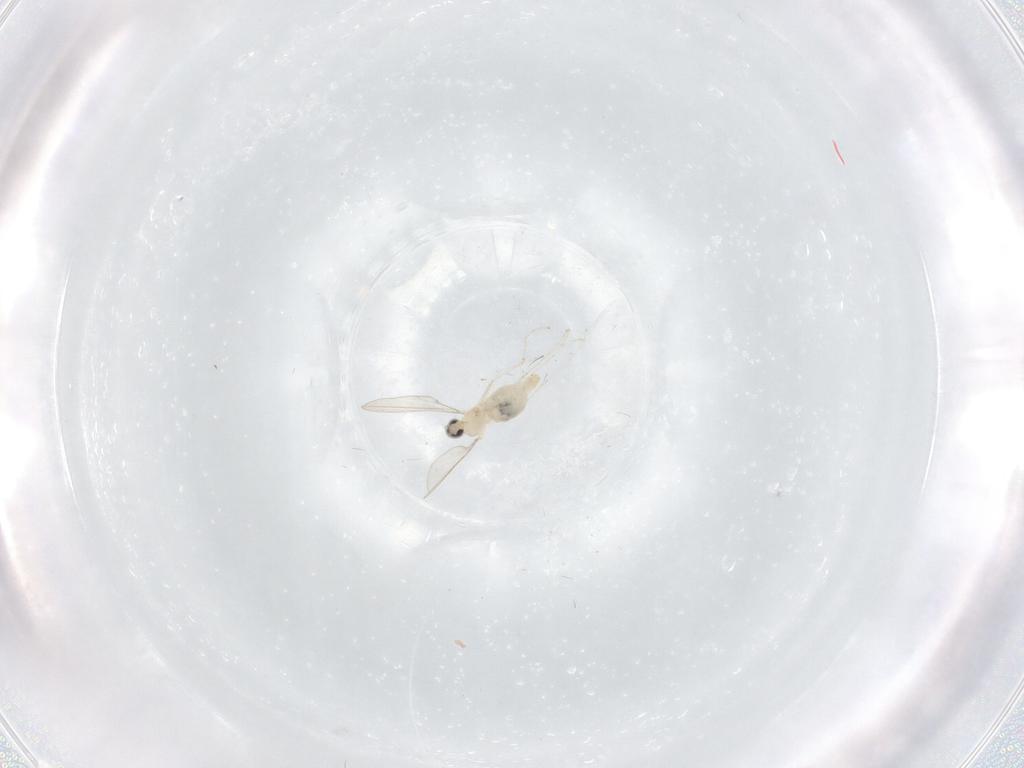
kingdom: Animalia
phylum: Arthropoda
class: Insecta
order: Diptera
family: Cecidomyiidae
